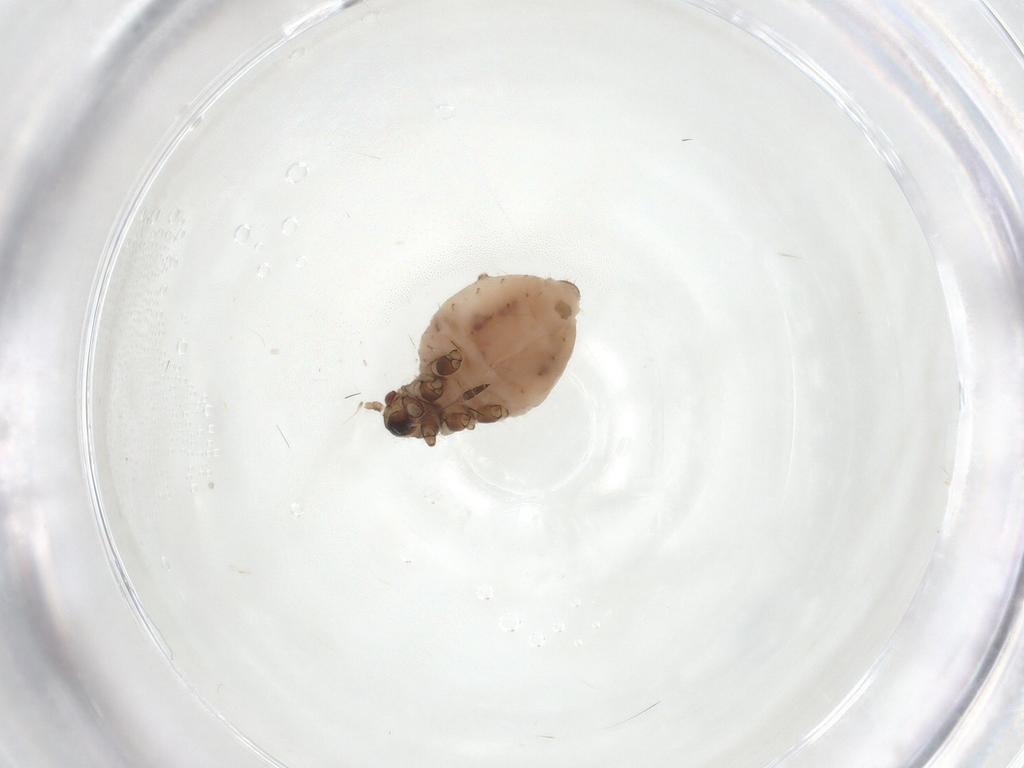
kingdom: Animalia
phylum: Arthropoda
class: Insecta
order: Hemiptera
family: Aphididae
